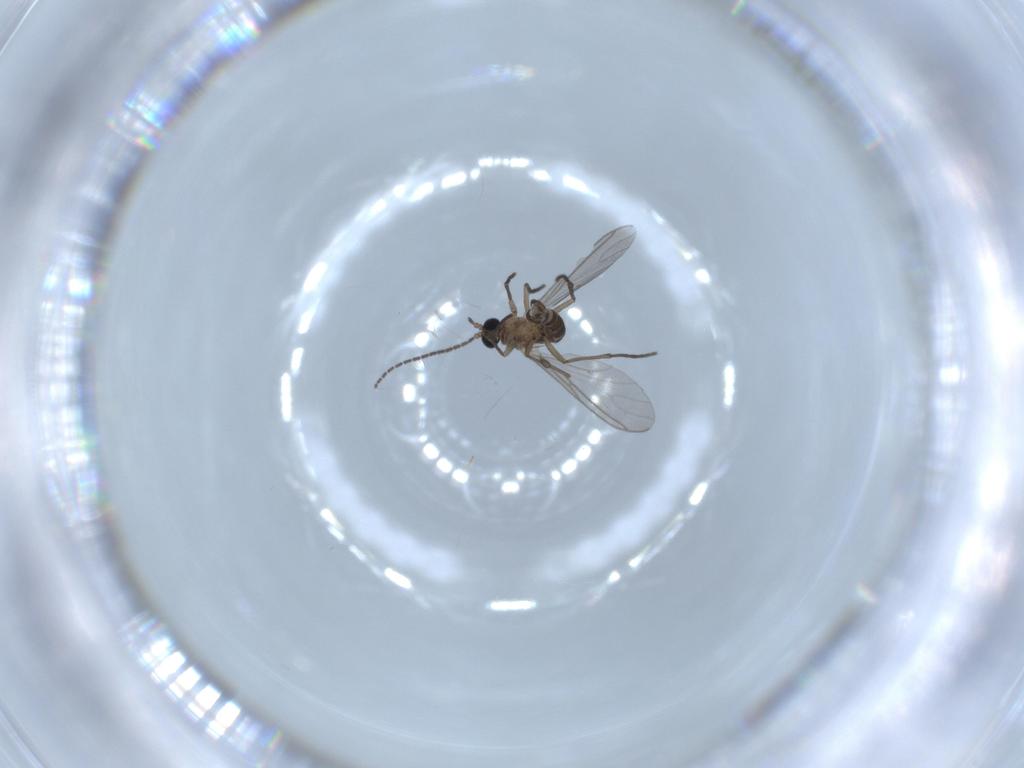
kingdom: Animalia
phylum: Arthropoda
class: Insecta
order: Diptera
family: Sciaridae
